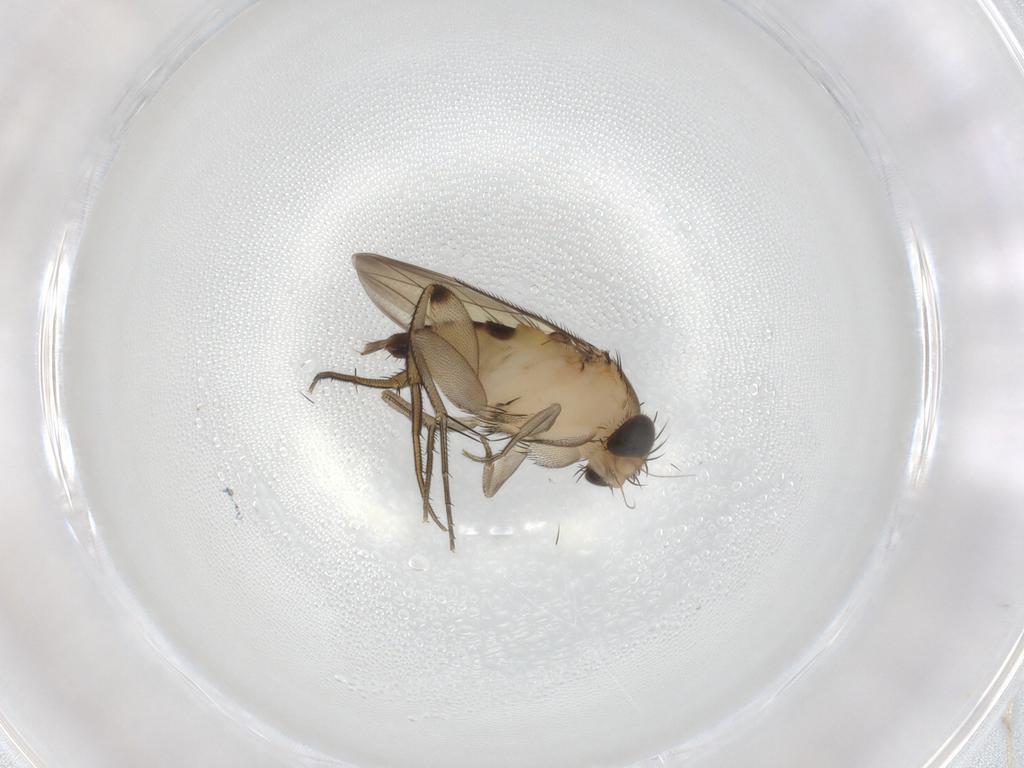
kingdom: Animalia
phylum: Arthropoda
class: Insecta
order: Diptera
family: Phoridae
